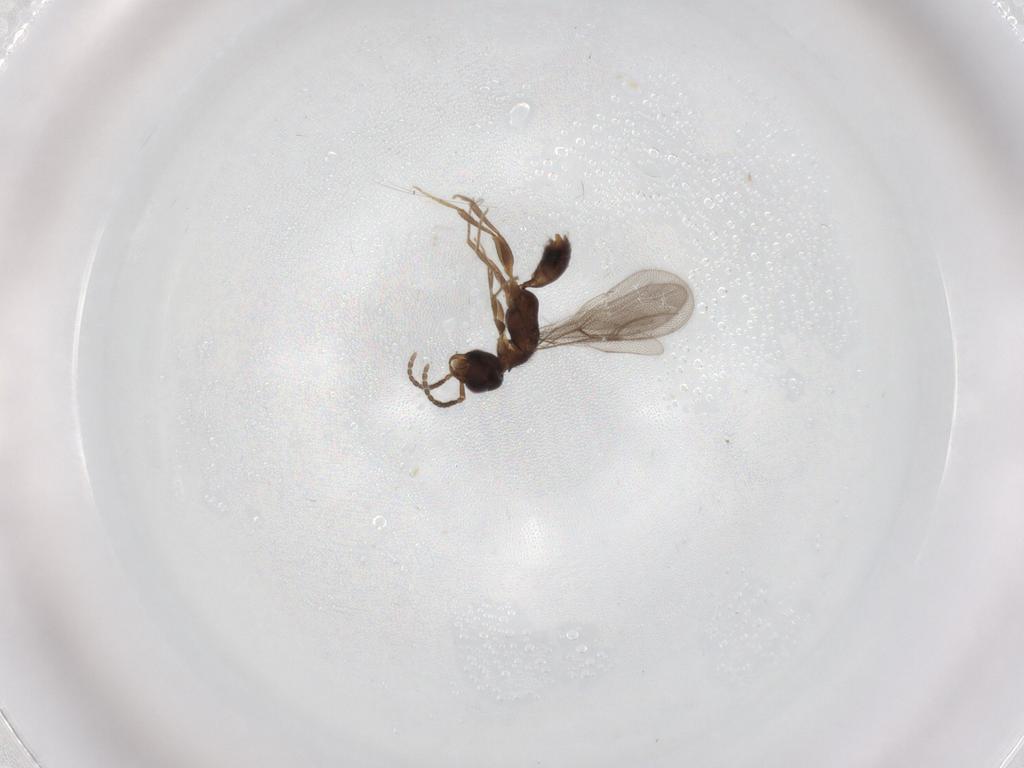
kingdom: Animalia
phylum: Arthropoda
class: Insecta
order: Hymenoptera
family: Bethylidae
